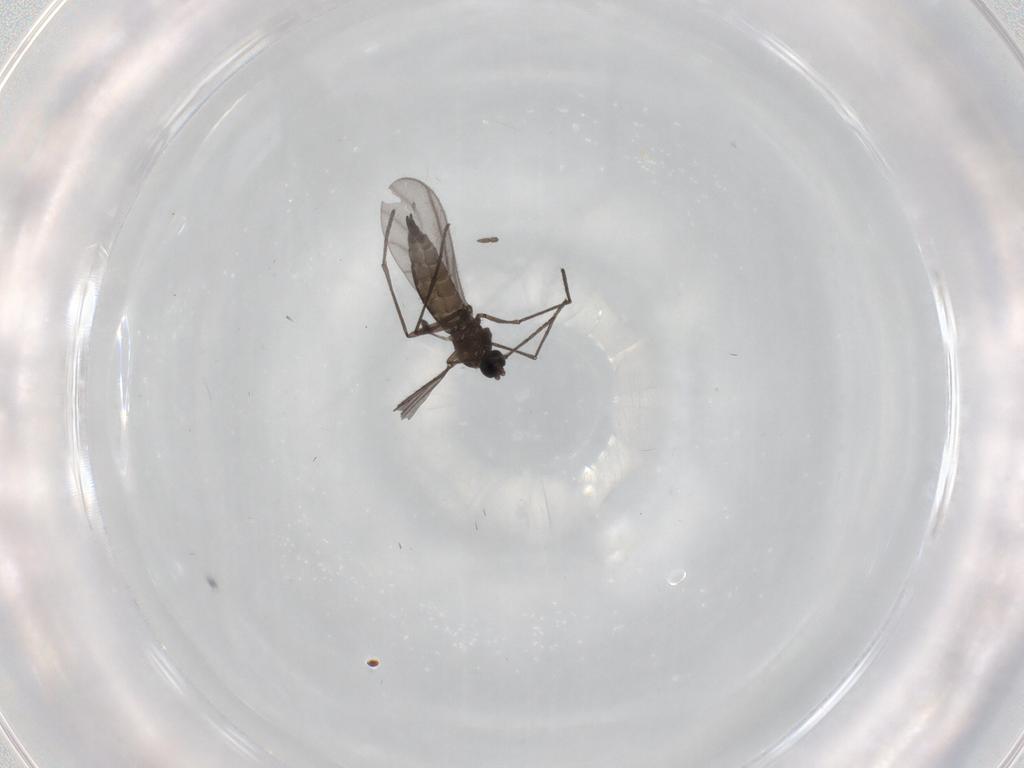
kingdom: Animalia
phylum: Arthropoda
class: Insecta
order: Diptera
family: Sciaridae
